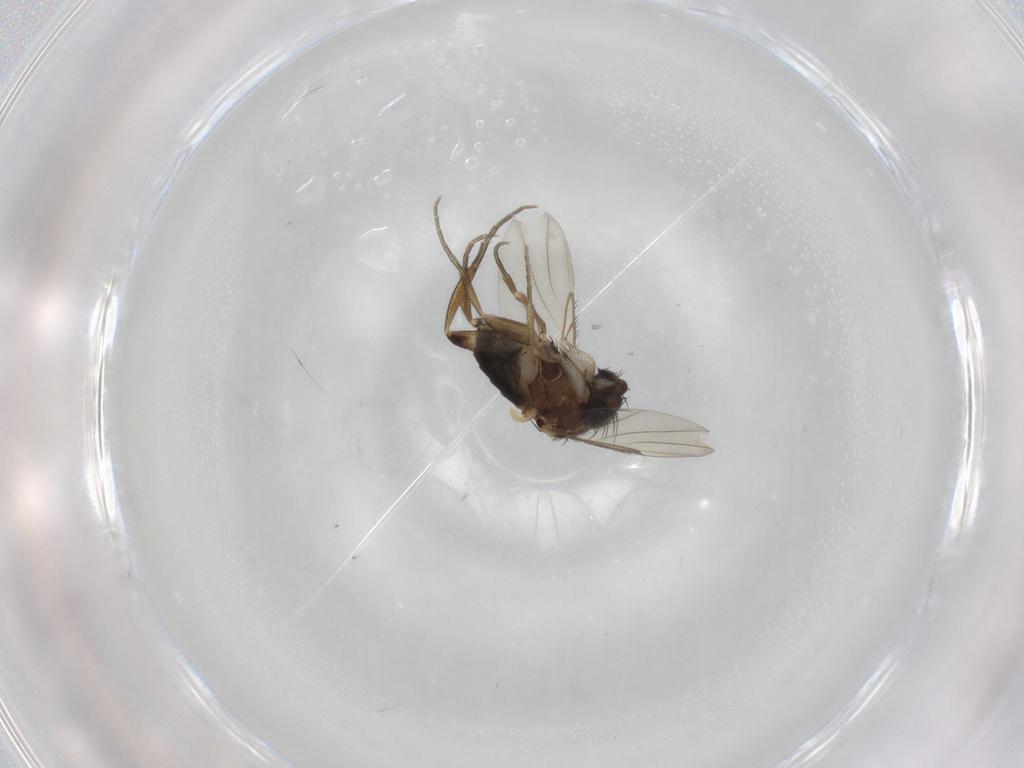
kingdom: Animalia
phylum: Arthropoda
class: Insecta
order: Diptera
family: Phoridae
